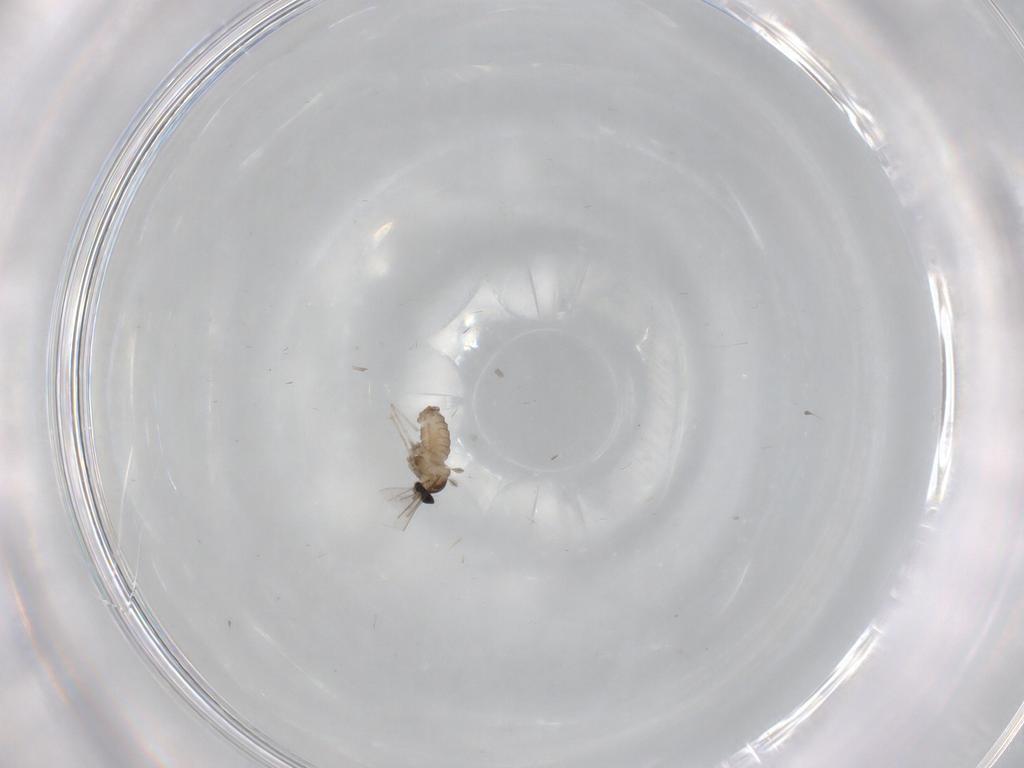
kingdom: Animalia
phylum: Arthropoda
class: Insecta
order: Diptera
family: Cecidomyiidae
